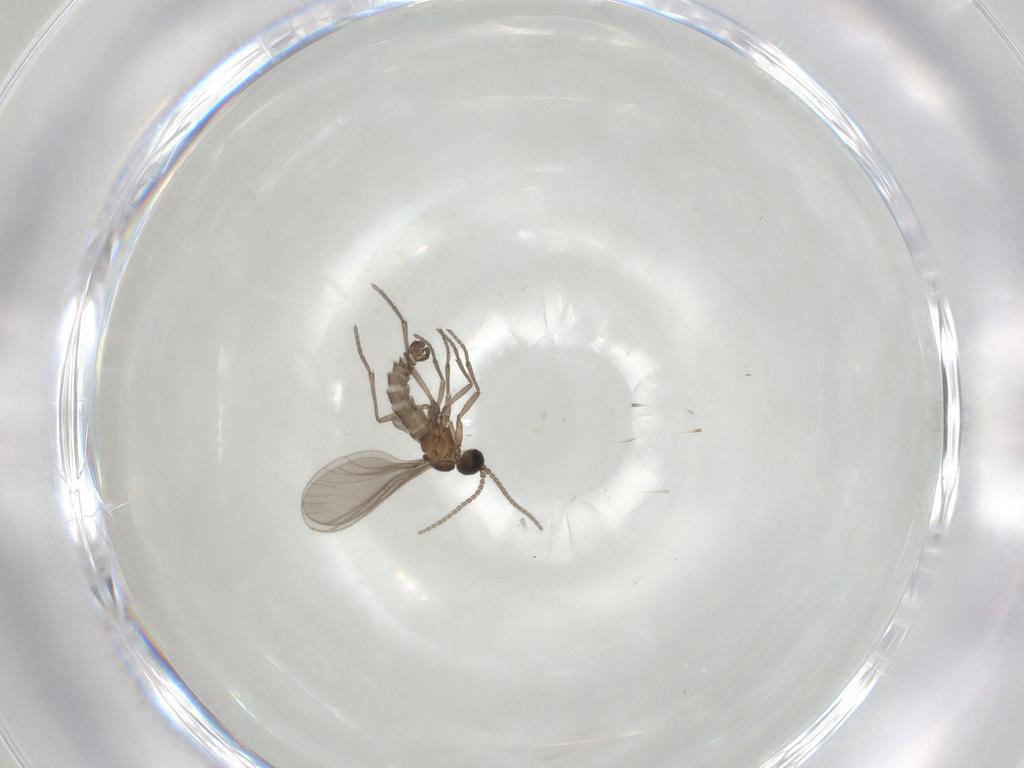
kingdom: Animalia
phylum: Arthropoda
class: Insecta
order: Diptera
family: Sciaridae
